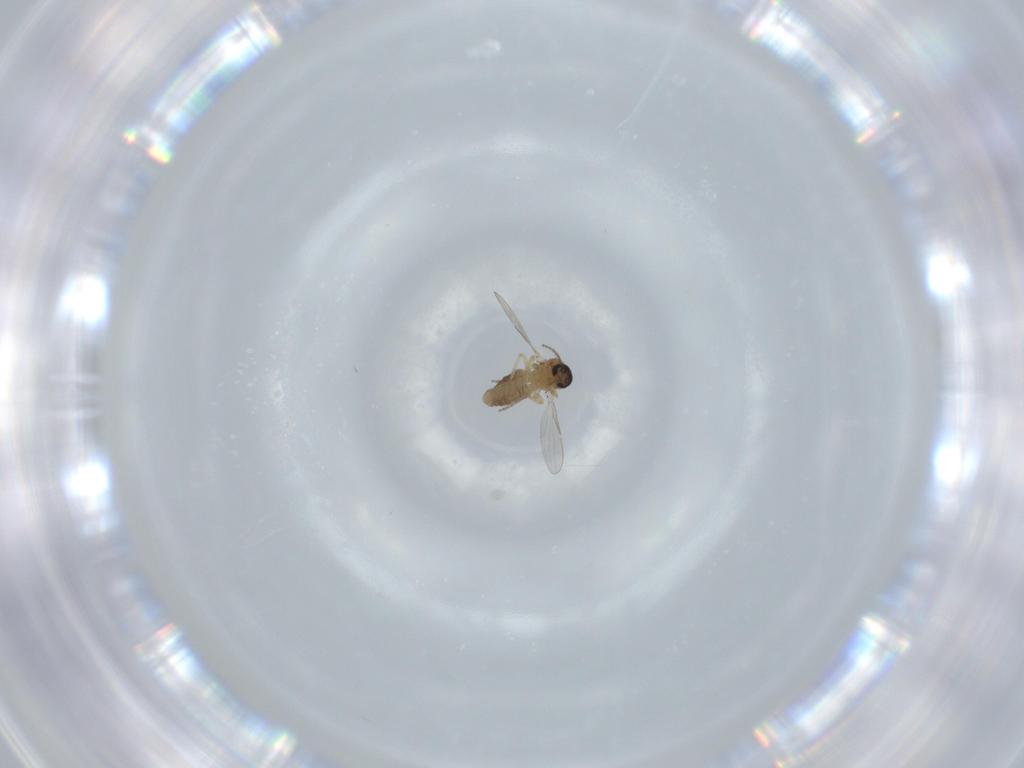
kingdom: Animalia
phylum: Arthropoda
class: Insecta
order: Diptera
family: Ceratopogonidae
